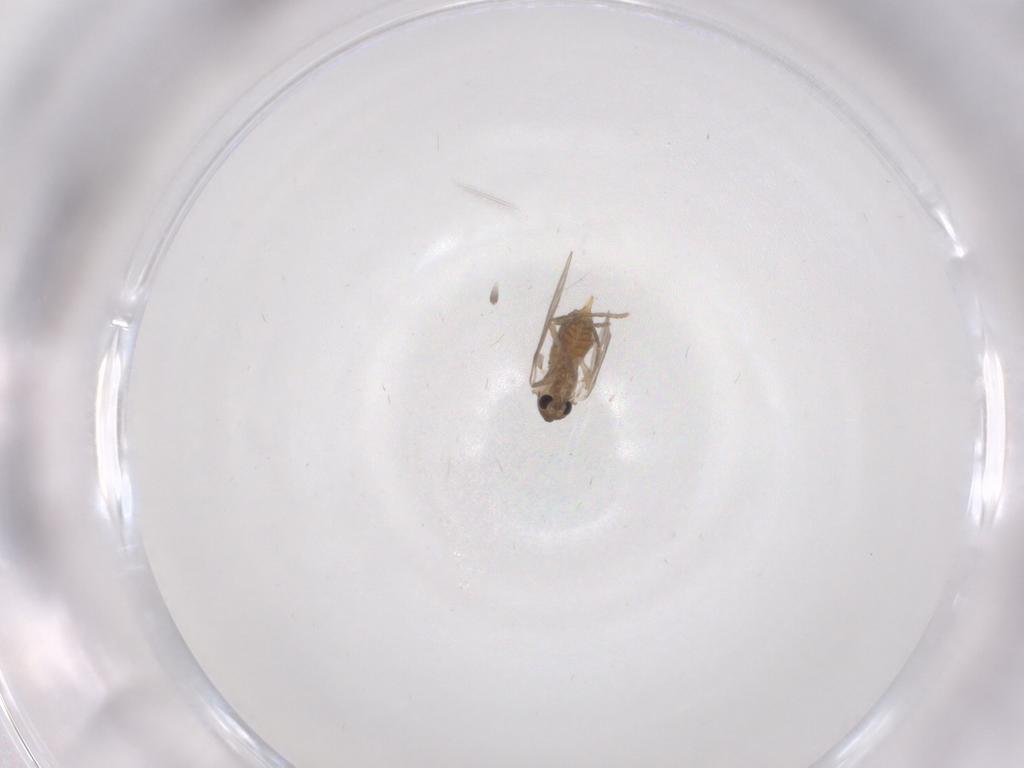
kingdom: Animalia
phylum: Arthropoda
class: Insecta
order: Diptera
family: Psychodidae
